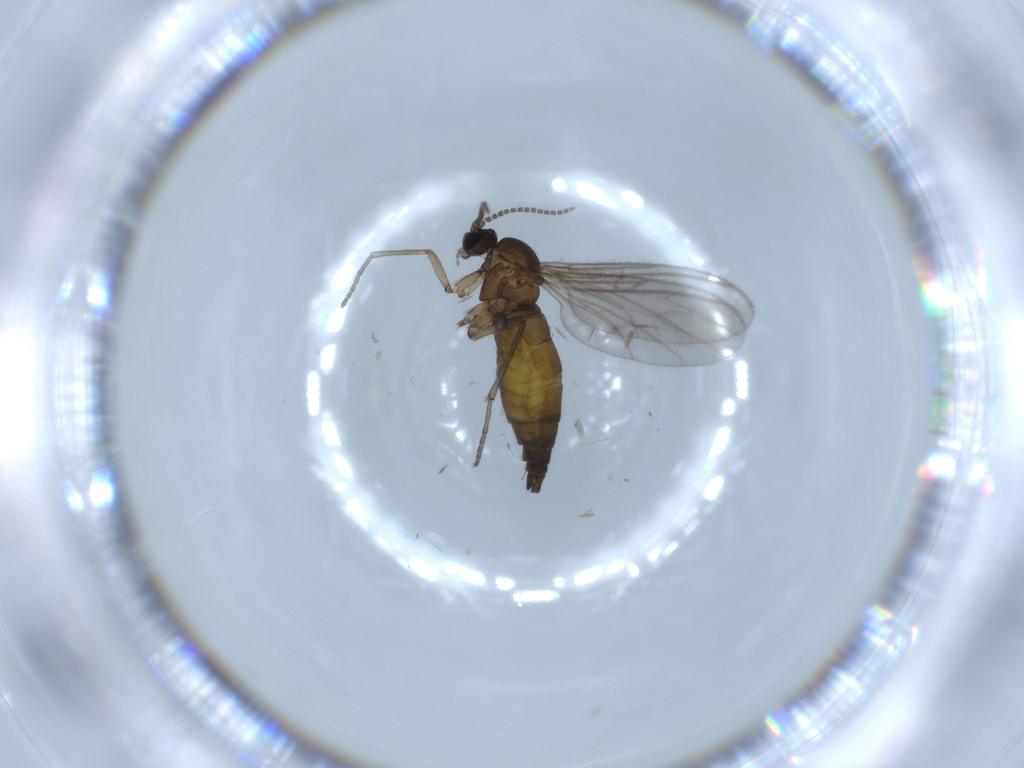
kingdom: Animalia
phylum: Arthropoda
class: Insecta
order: Diptera
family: Sciaridae
